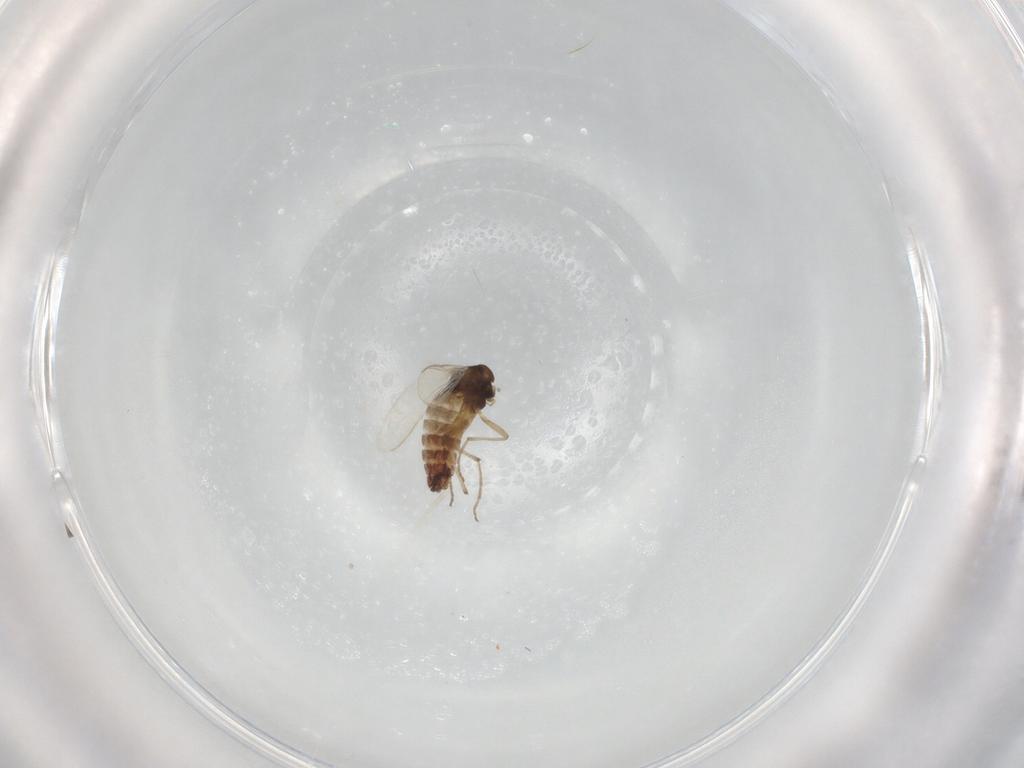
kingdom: Animalia
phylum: Arthropoda
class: Insecta
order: Diptera
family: Chironomidae
